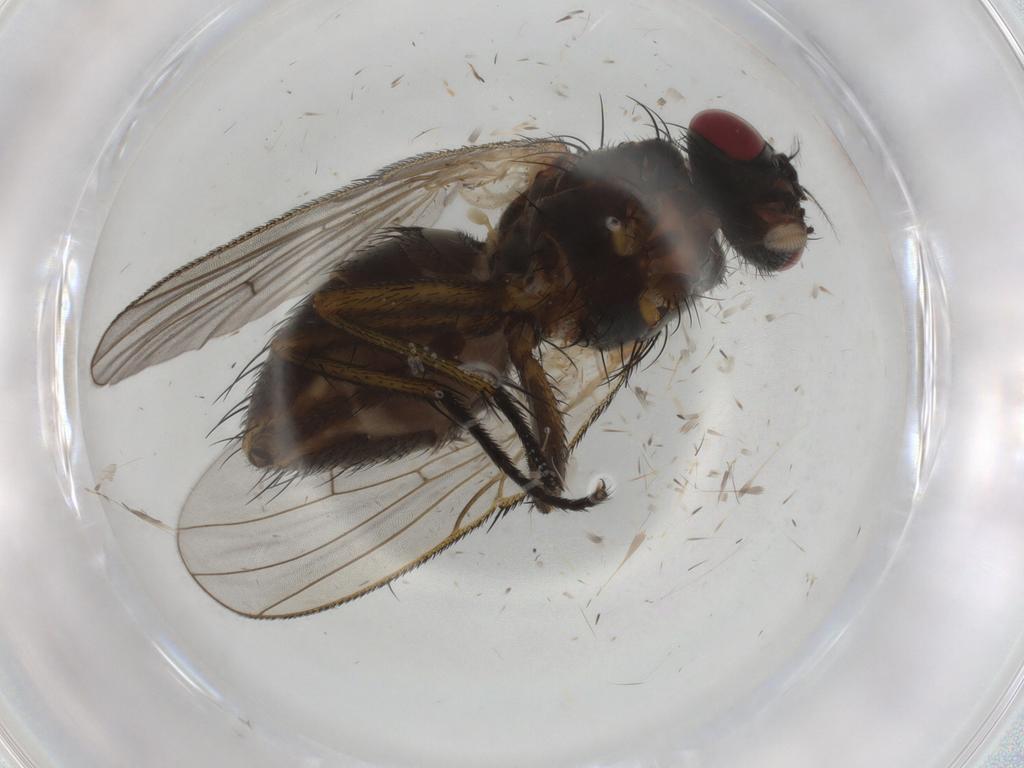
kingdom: Animalia
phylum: Arthropoda
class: Insecta
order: Diptera
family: Muscidae
